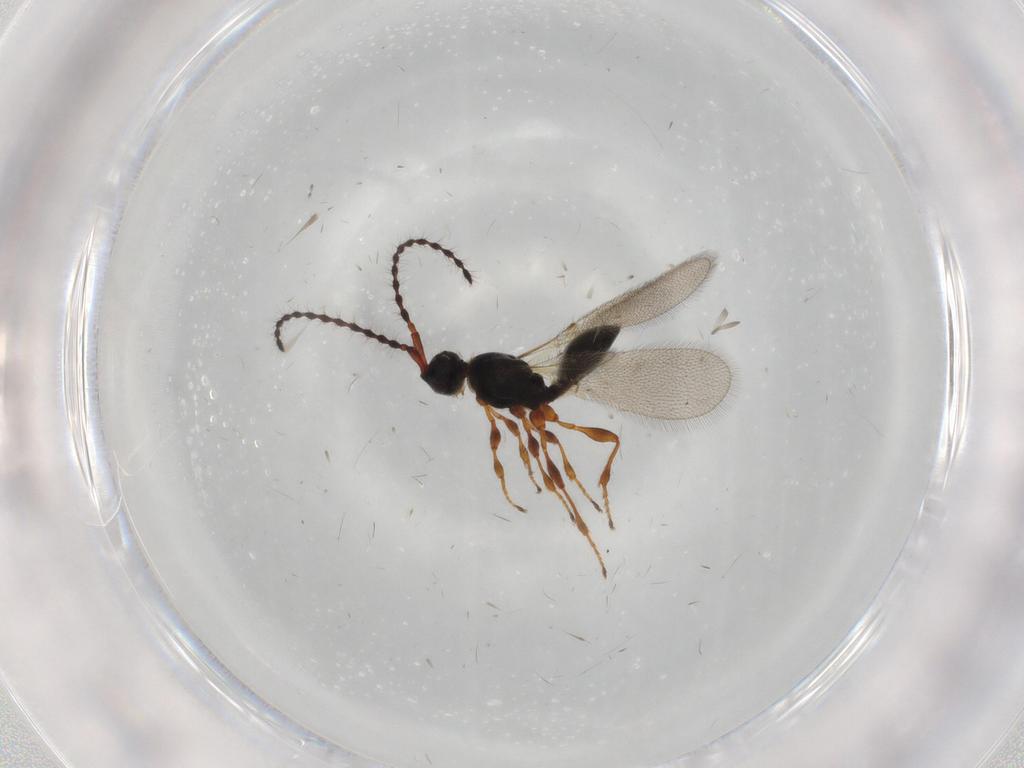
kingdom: Animalia
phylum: Arthropoda
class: Insecta
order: Hymenoptera
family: Diapriidae
